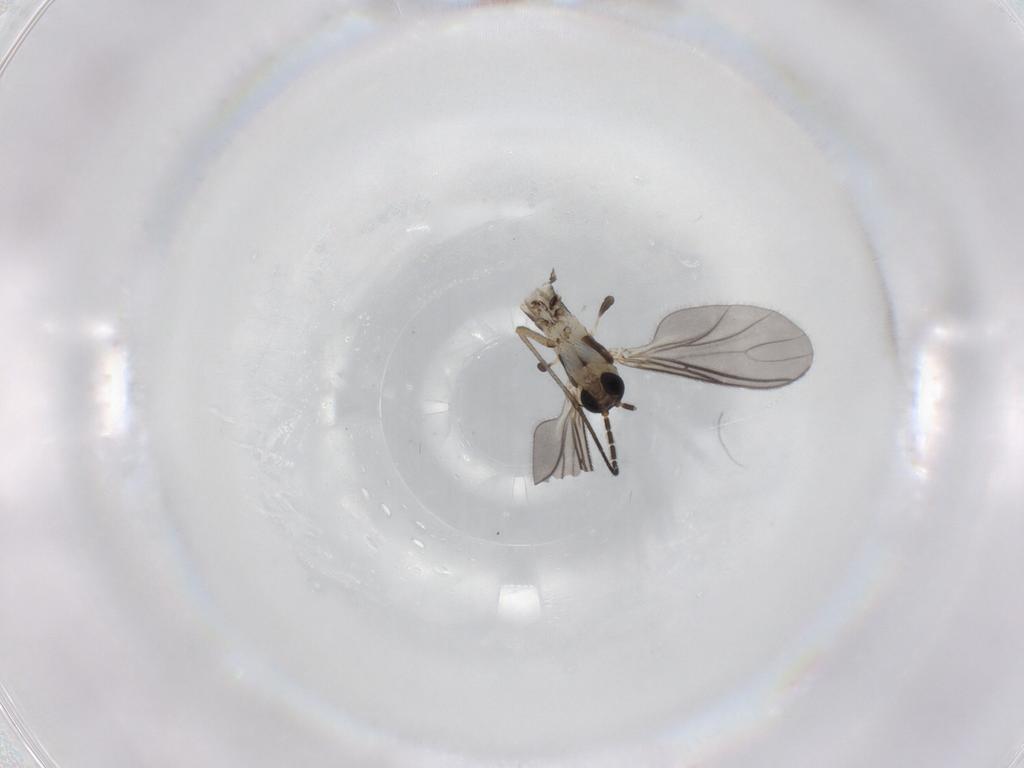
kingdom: Animalia
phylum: Arthropoda
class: Insecta
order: Diptera
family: Sciaridae
